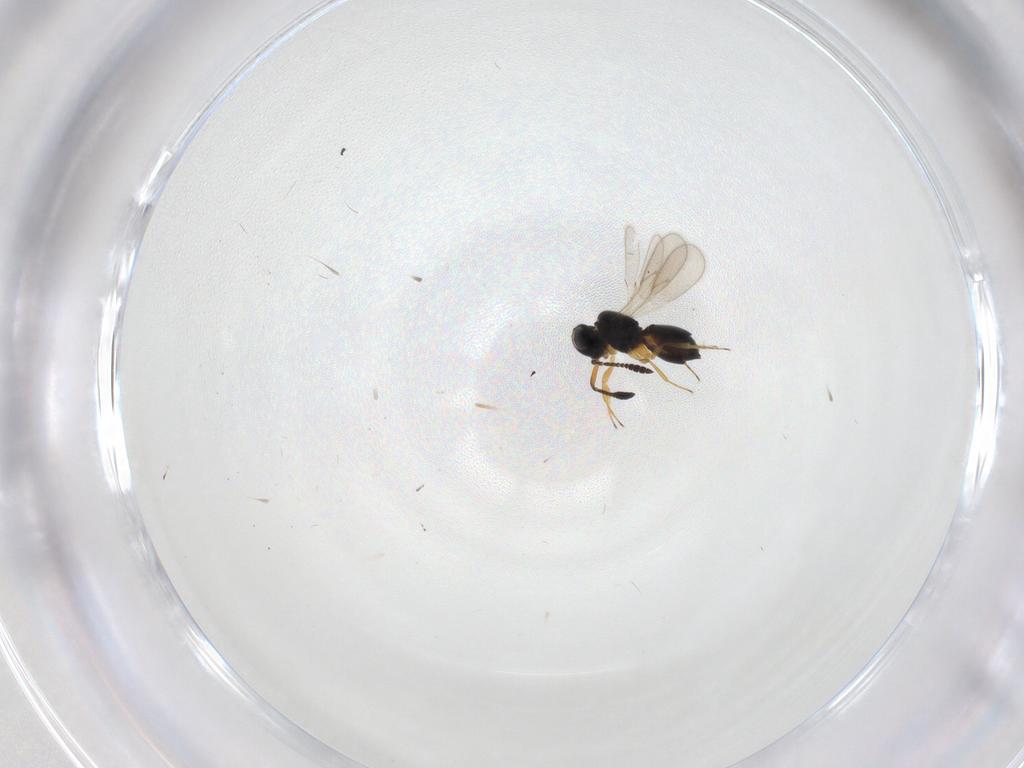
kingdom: Animalia
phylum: Arthropoda
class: Insecta
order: Hymenoptera
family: Scelionidae
